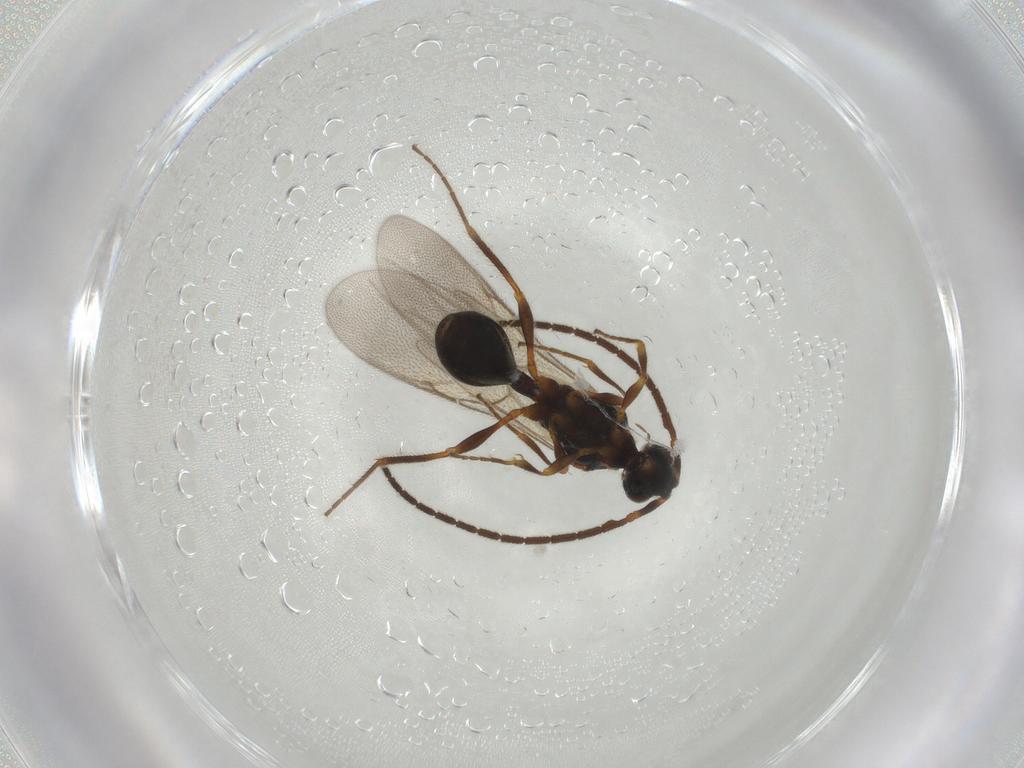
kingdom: Animalia
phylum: Arthropoda
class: Insecta
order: Hymenoptera
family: Diapriidae
